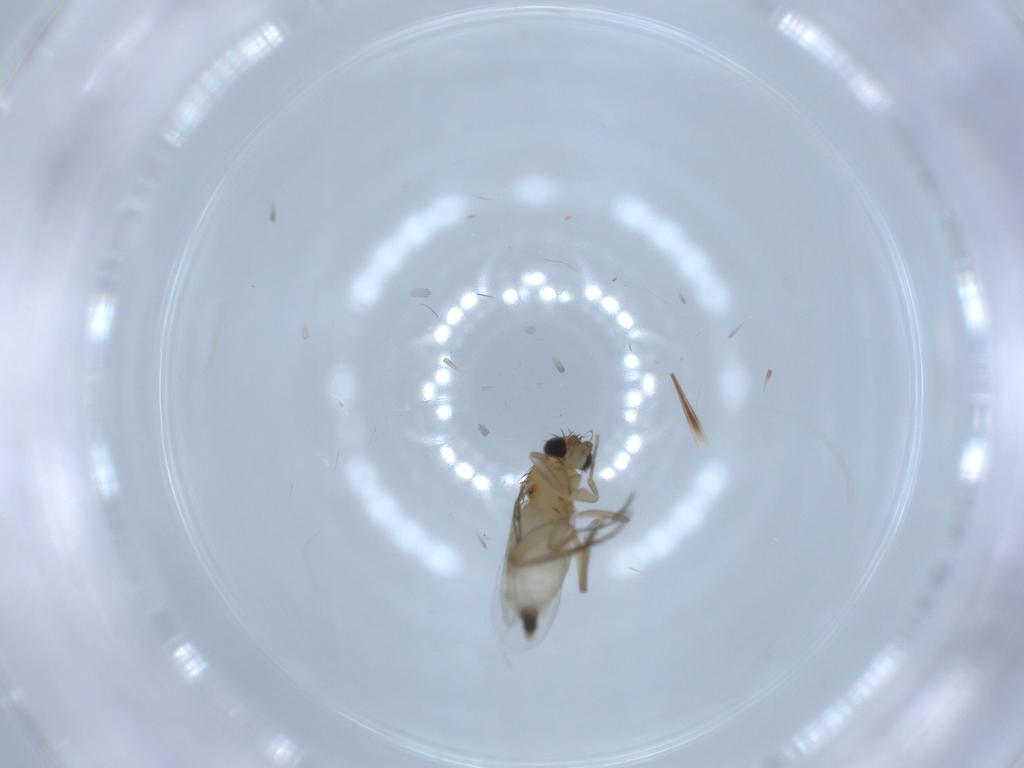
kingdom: Animalia
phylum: Arthropoda
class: Insecta
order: Diptera
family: Phoridae
